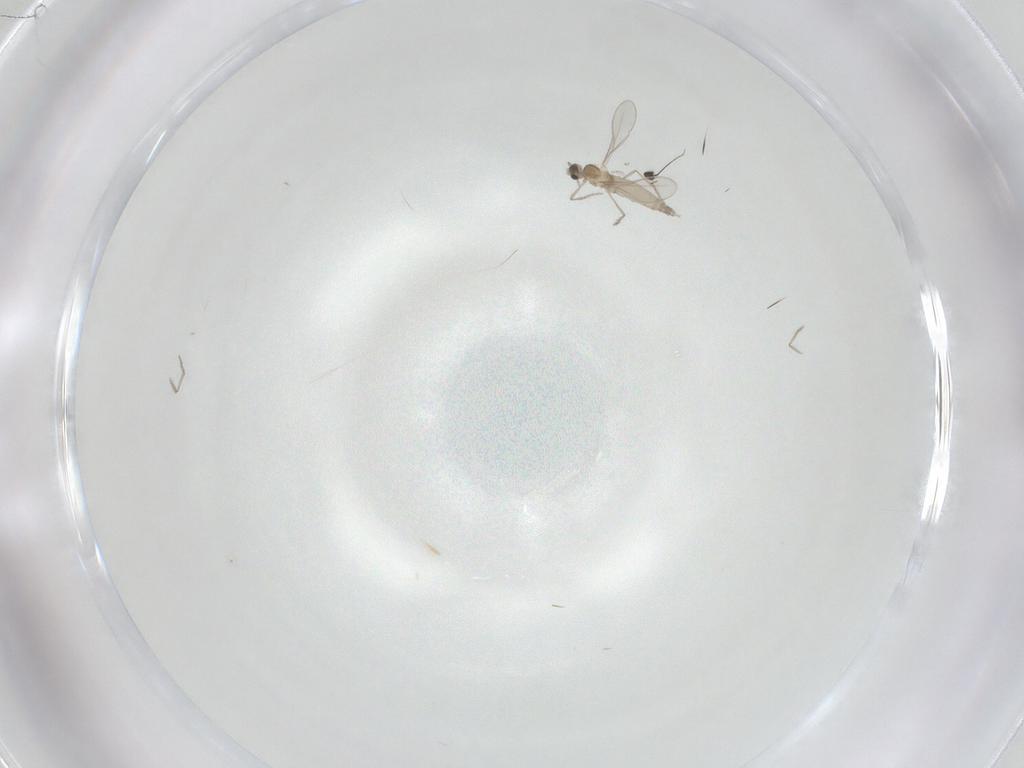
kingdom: Animalia
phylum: Arthropoda
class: Insecta
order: Diptera
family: Cecidomyiidae
